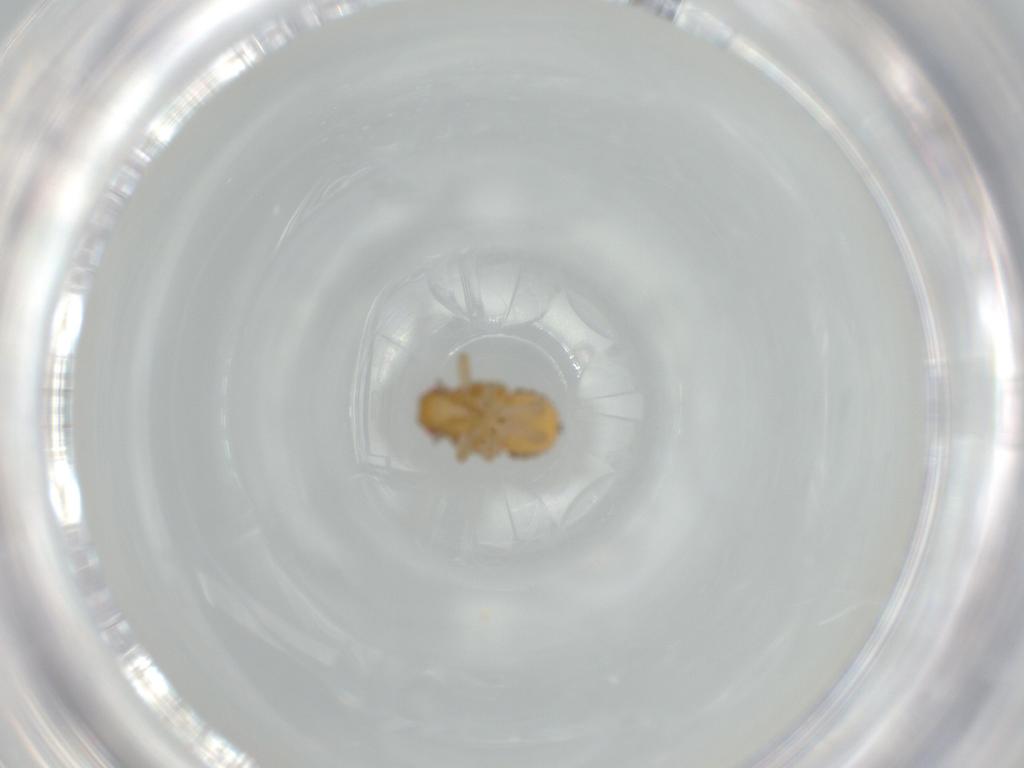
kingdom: Animalia
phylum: Arthropoda
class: Insecta
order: Hemiptera
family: Issidae
